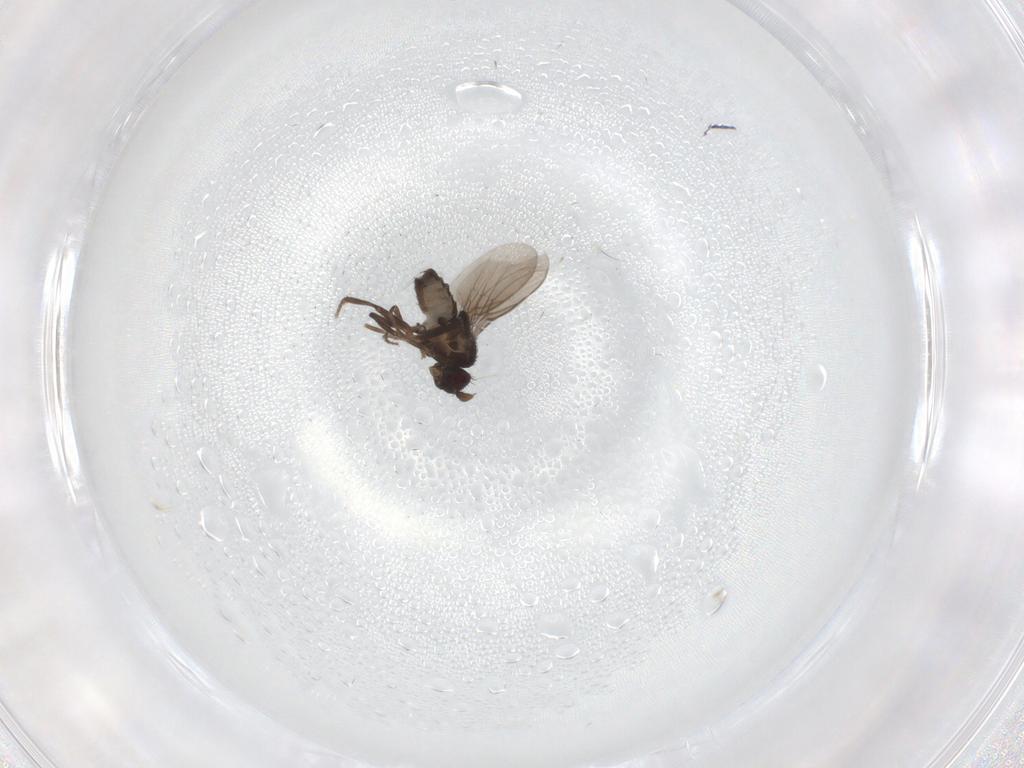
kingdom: Animalia
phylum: Arthropoda
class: Insecta
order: Diptera
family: Sphaeroceridae
